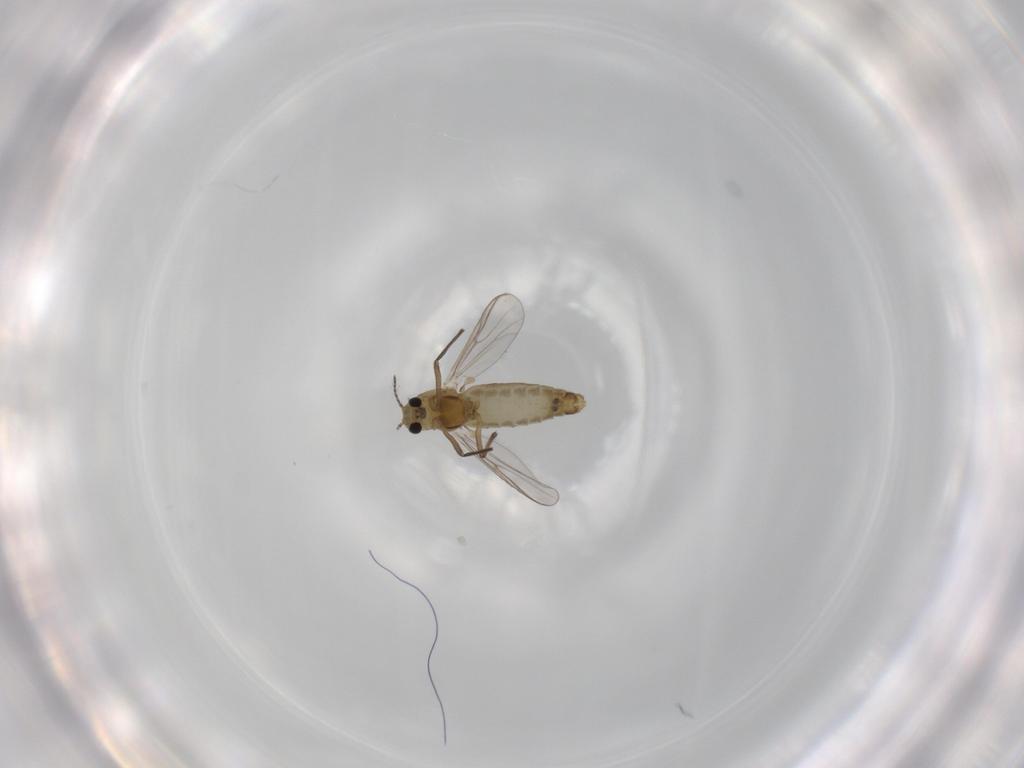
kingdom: Animalia
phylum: Arthropoda
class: Insecta
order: Diptera
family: Chironomidae
